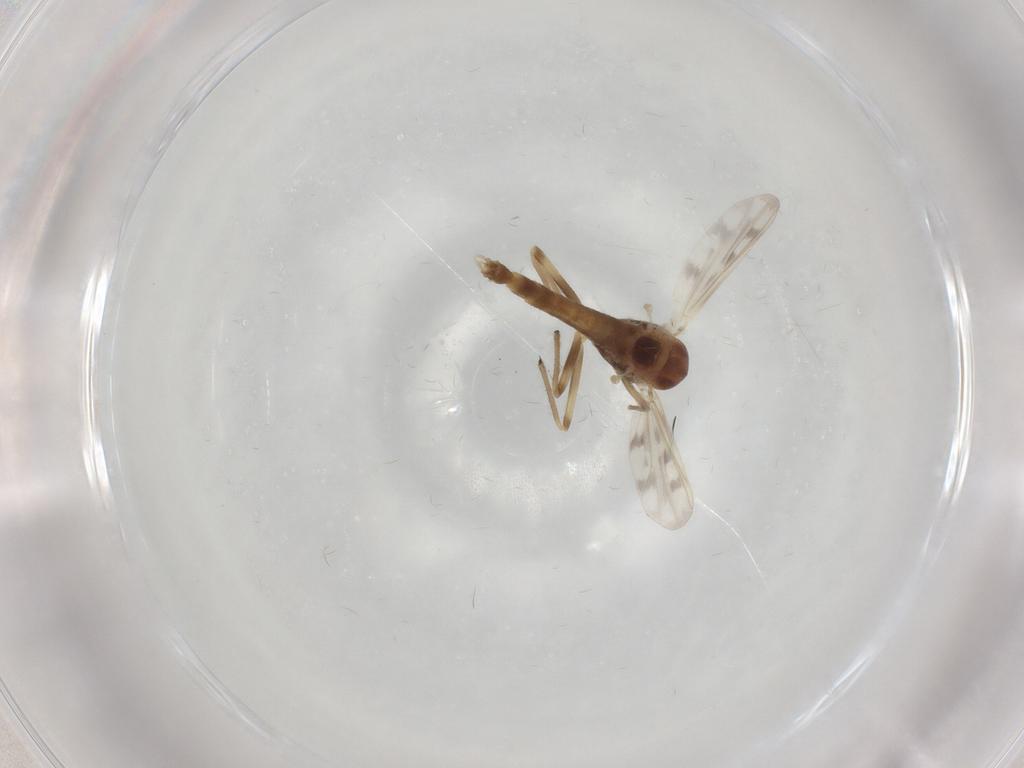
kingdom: Animalia
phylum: Arthropoda
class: Insecta
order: Diptera
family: Chironomidae
